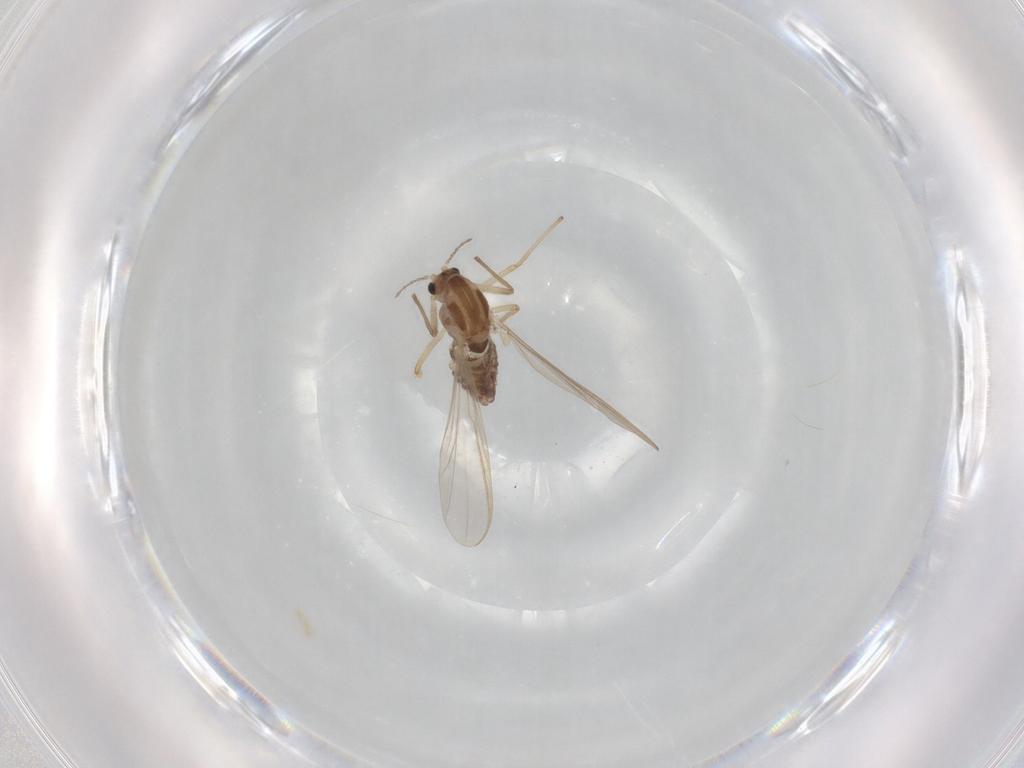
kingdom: Animalia
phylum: Arthropoda
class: Insecta
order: Diptera
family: Chironomidae
